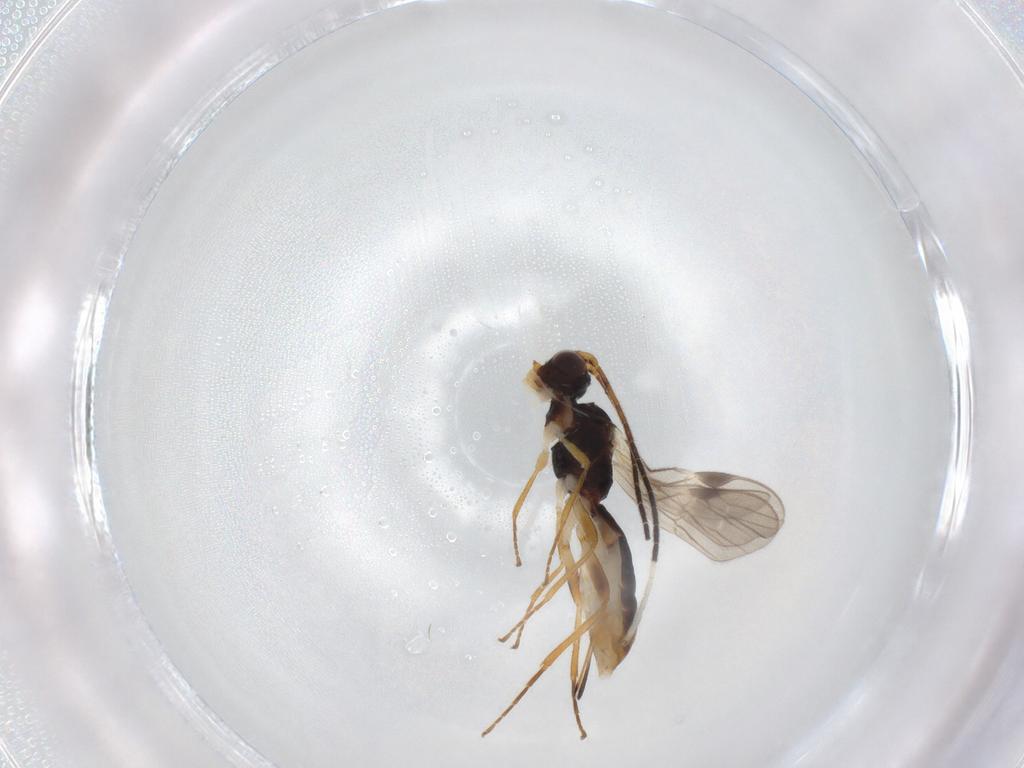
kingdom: Animalia
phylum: Arthropoda
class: Insecta
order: Hymenoptera
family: Braconidae
